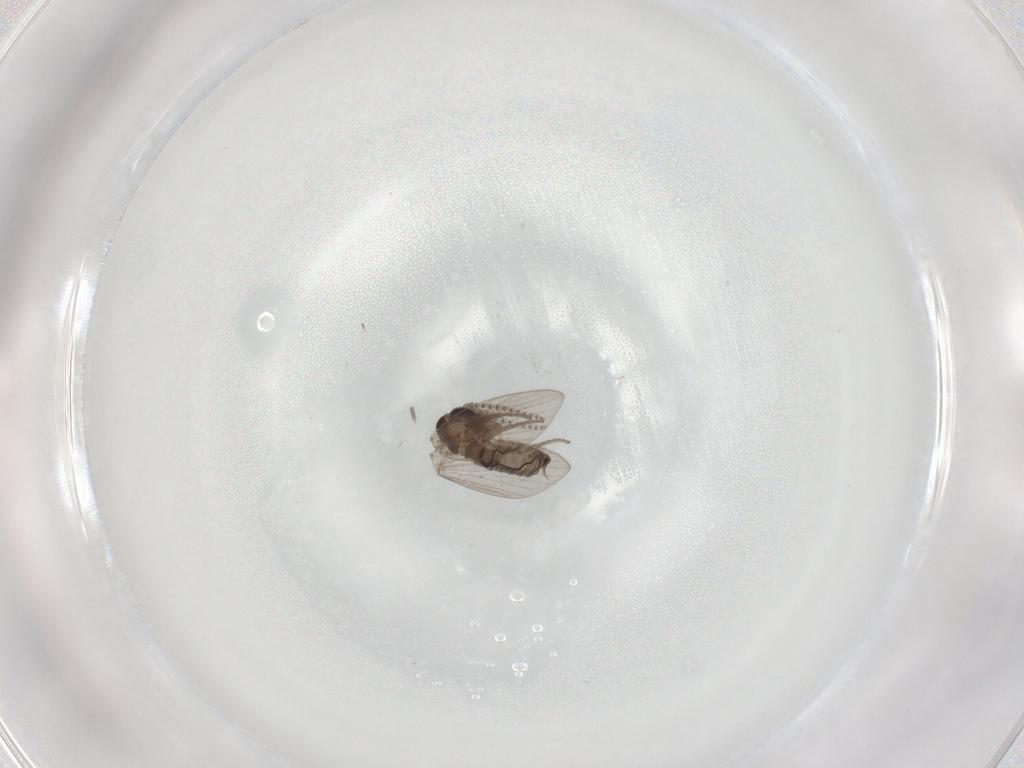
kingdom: Animalia
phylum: Arthropoda
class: Insecta
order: Diptera
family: Psychodidae
